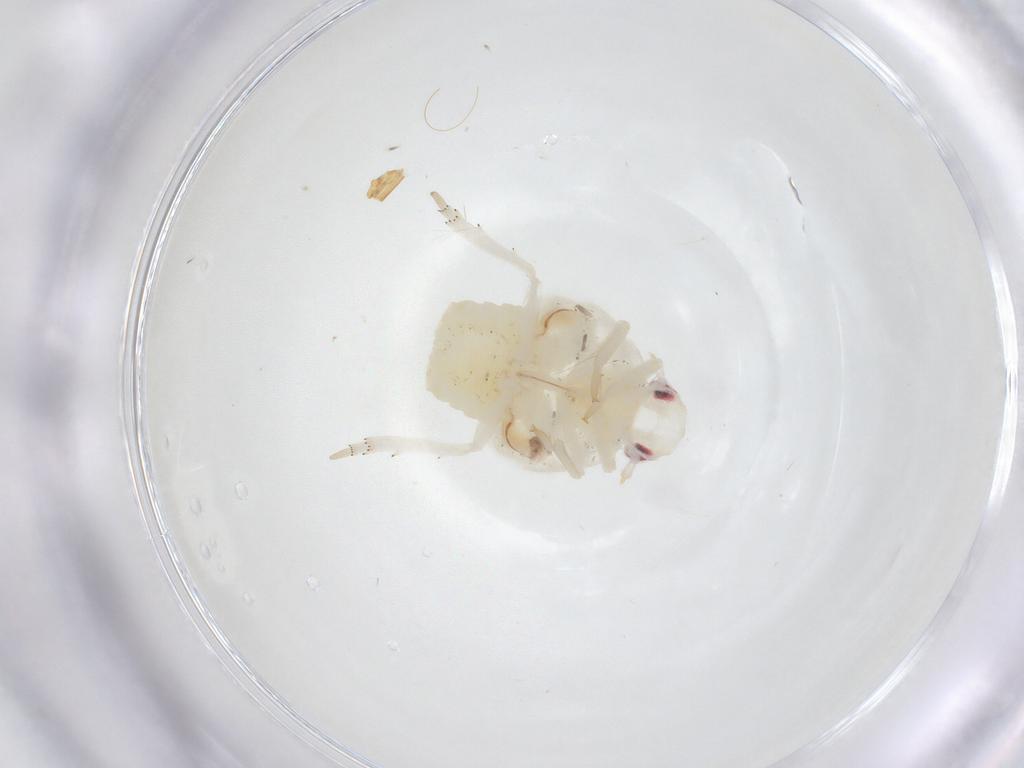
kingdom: Animalia
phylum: Arthropoda
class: Insecta
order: Hemiptera
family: Fulgoroidea_incertae_sedis
